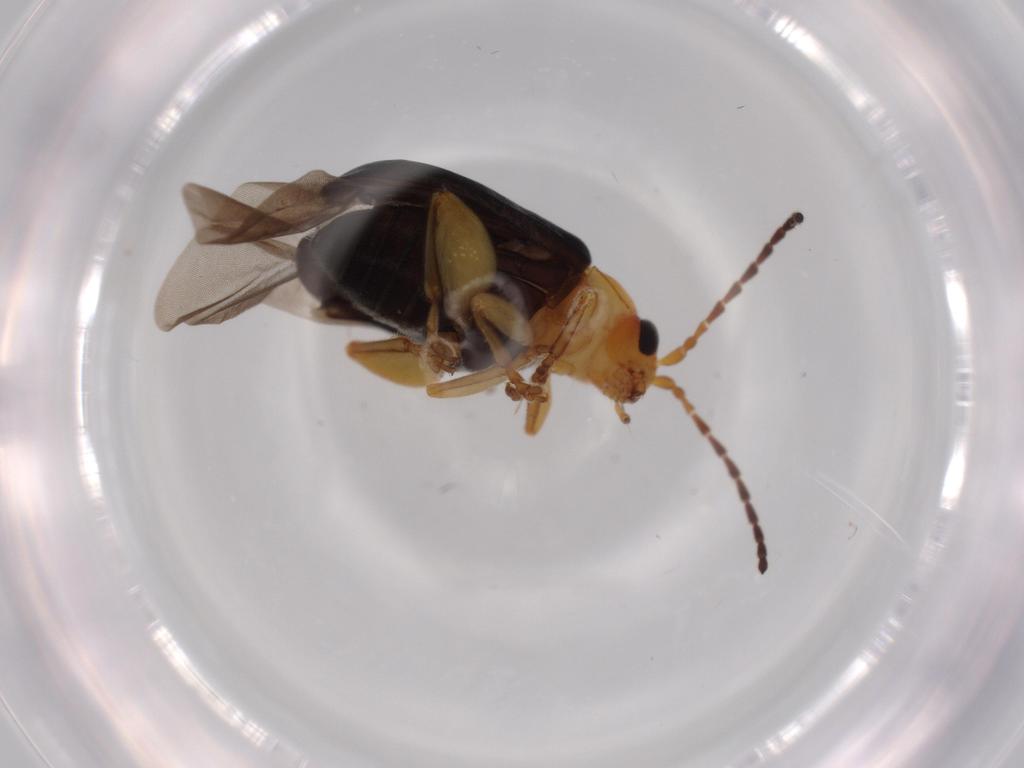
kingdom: Animalia
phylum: Arthropoda
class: Insecta
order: Coleoptera
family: Chrysomelidae
